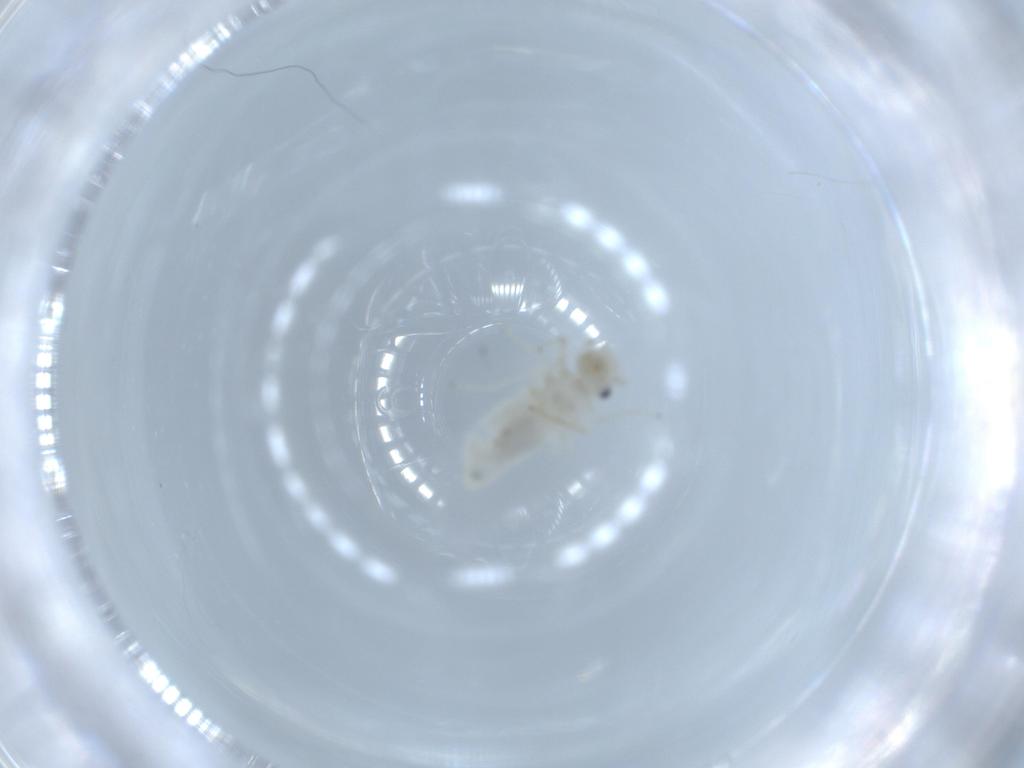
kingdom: Animalia
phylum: Arthropoda
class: Insecta
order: Psocodea
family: Caeciliusidae
